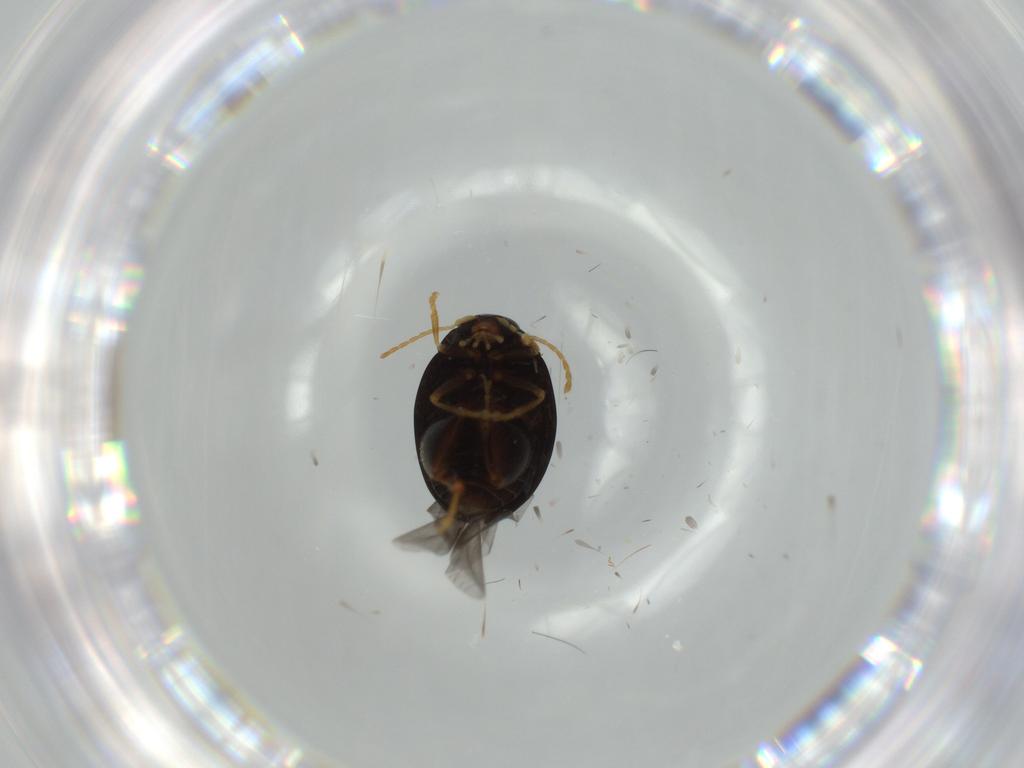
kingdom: Animalia
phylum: Arthropoda
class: Insecta
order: Coleoptera
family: Chrysomelidae
